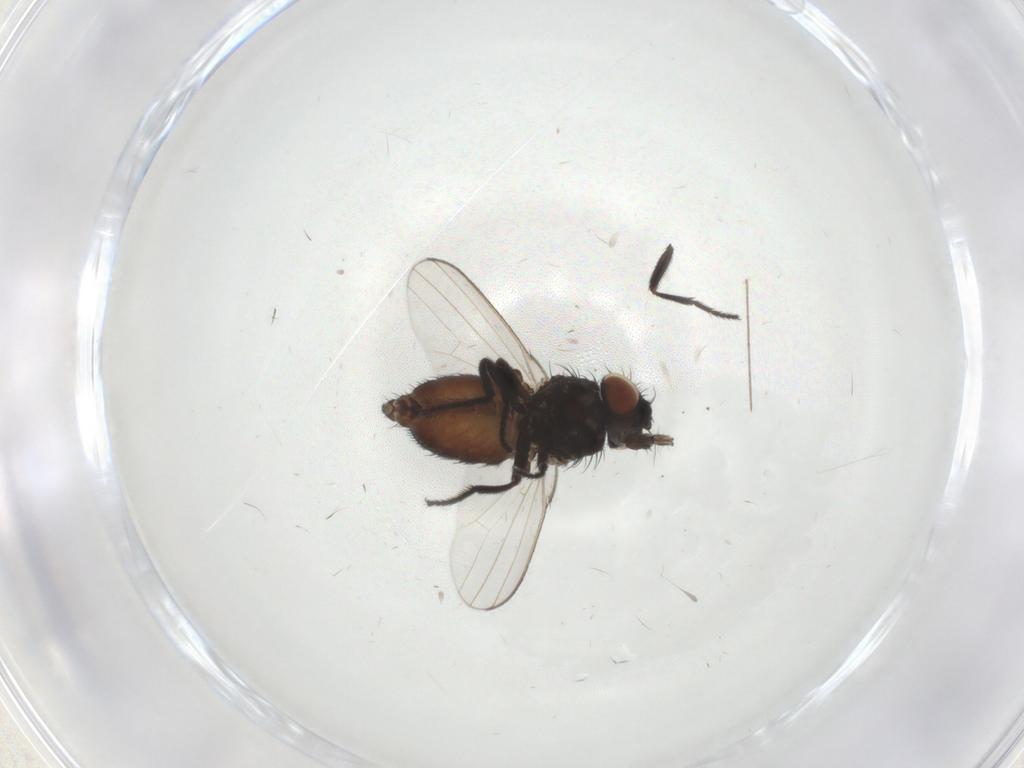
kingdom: Animalia
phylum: Arthropoda
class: Insecta
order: Diptera
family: Milichiidae
